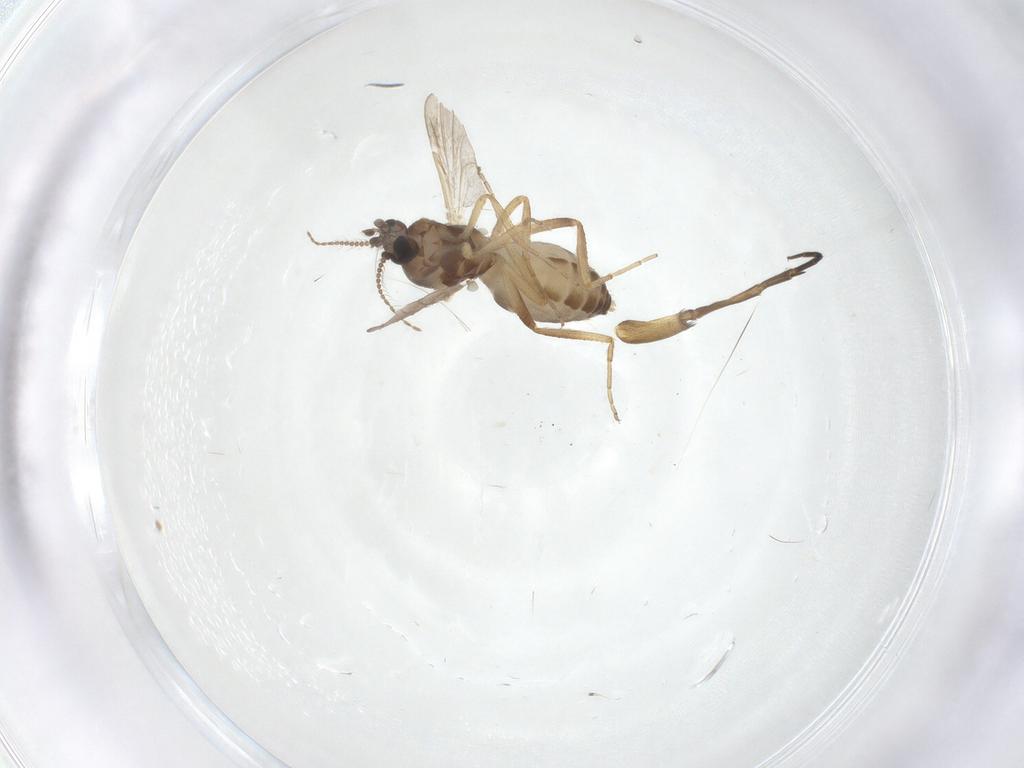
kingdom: Animalia
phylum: Arthropoda
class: Insecta
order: Diptera
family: Ceratopogonidae
